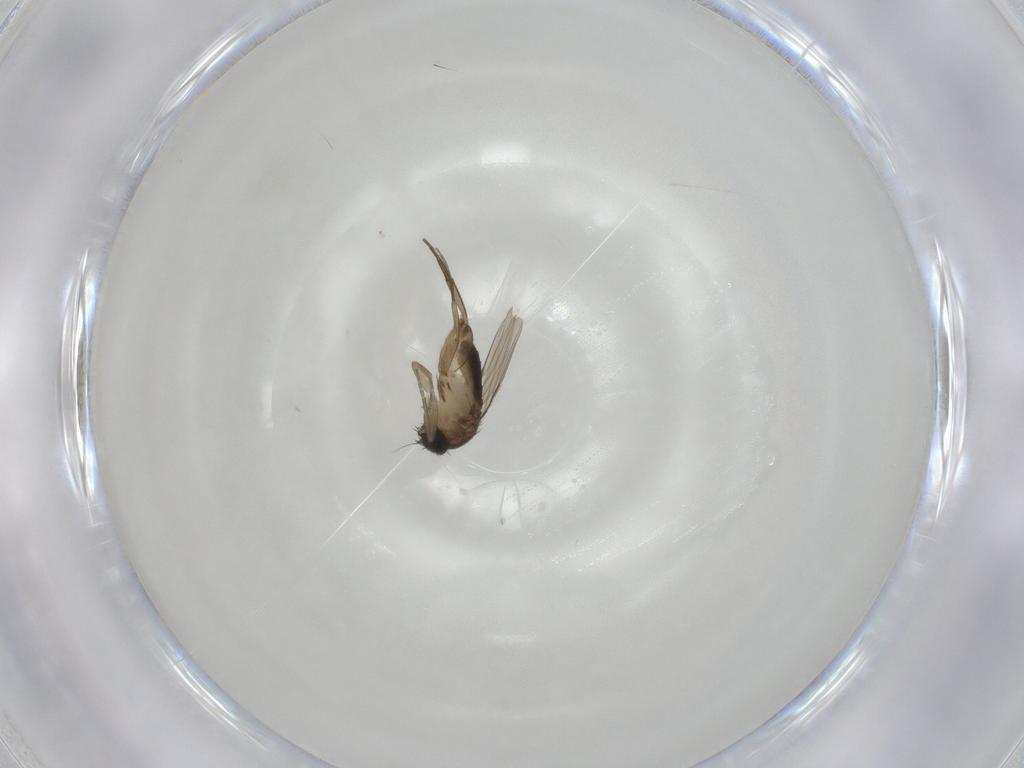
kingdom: Animalia
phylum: Arthropoda
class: Insecta
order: Diptera
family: Phoridae
